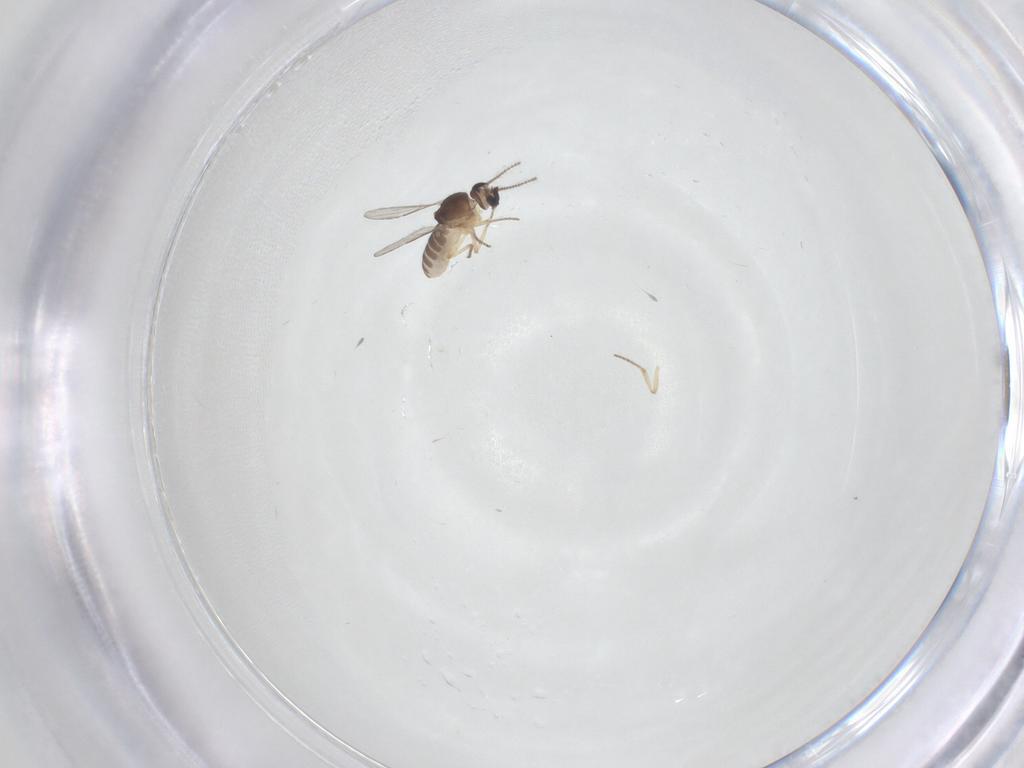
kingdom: Animalia
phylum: Arthropoda
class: Insecta
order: Diptera
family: Ceratopogonidae
